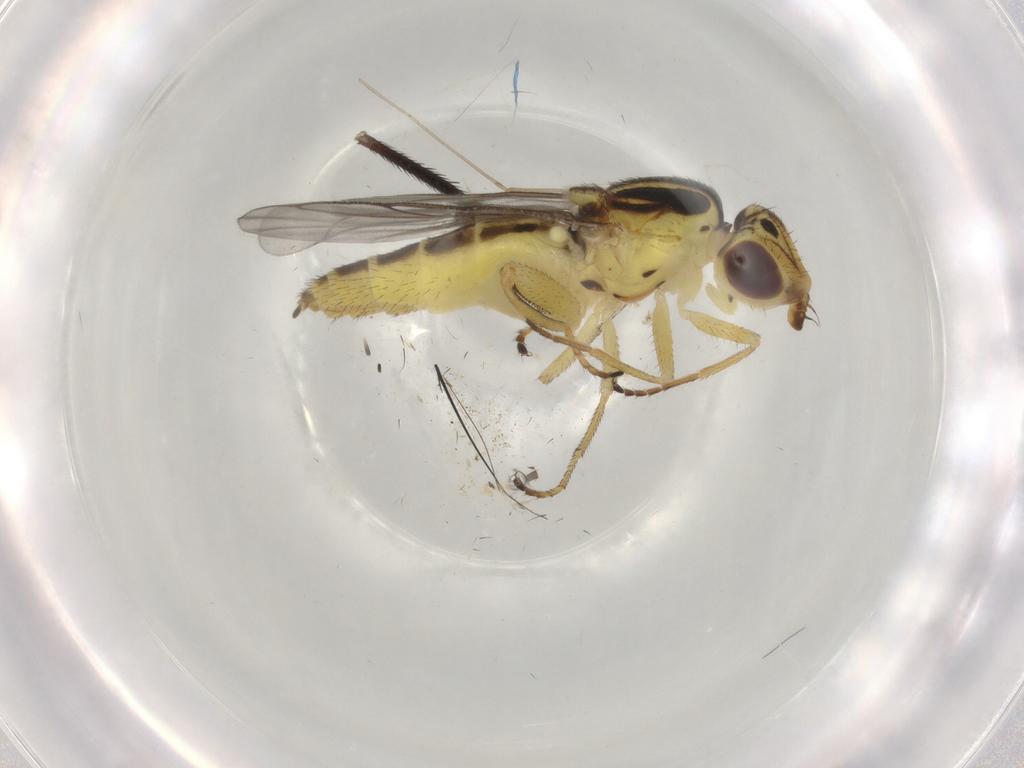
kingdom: Animalia
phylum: Arthropoda
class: Insecta
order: Diptera
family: Chloropidae
